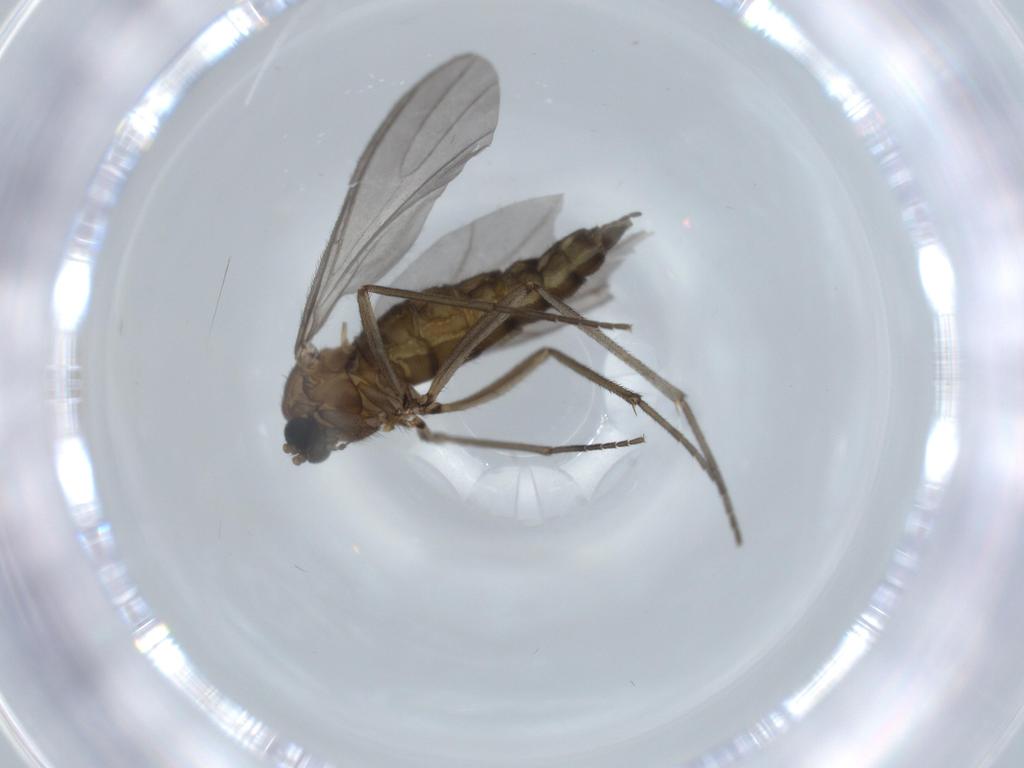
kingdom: Animalia
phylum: Arthropoda
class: Insecta
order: Diptera
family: Sciaridae
